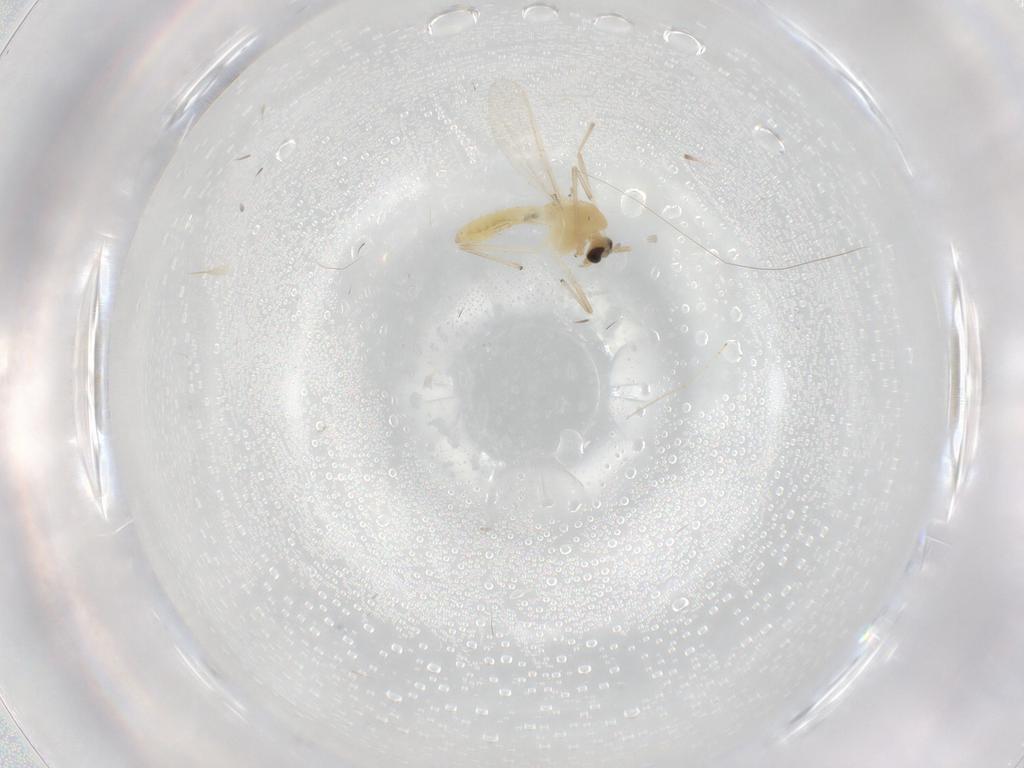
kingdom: Animalia
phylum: Arthropoda
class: Insecta
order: Diptera
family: Chironomidae
